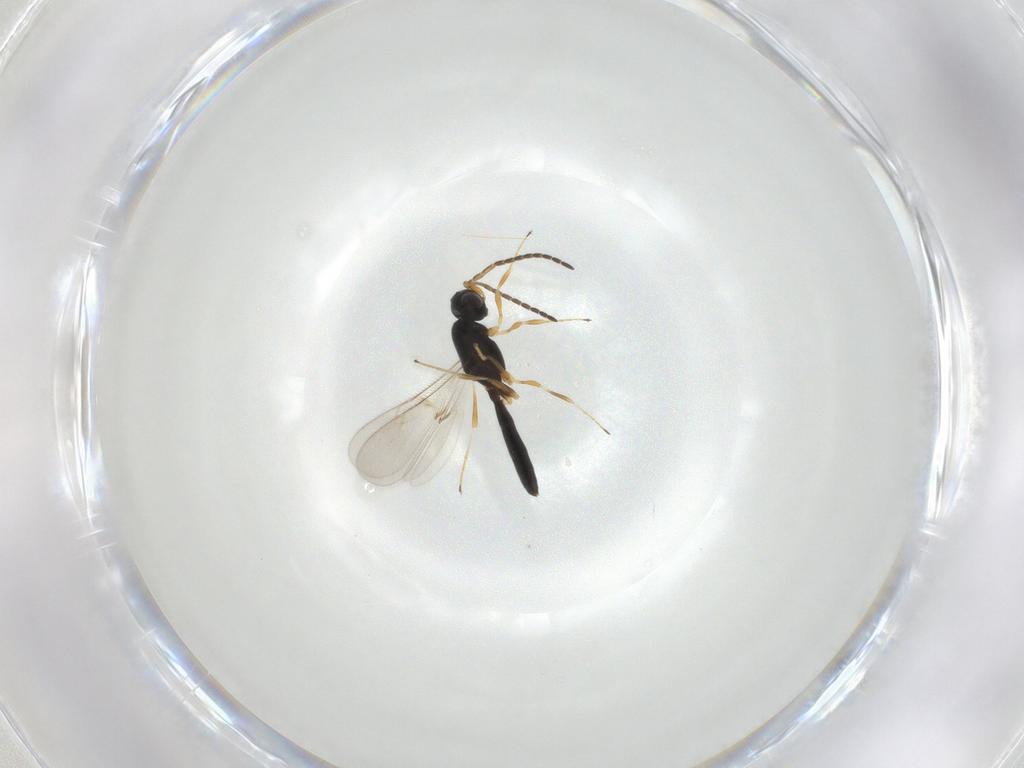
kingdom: Animalia
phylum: Arthropoda
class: Insecta
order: Hymenoptera
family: Scelionidae
